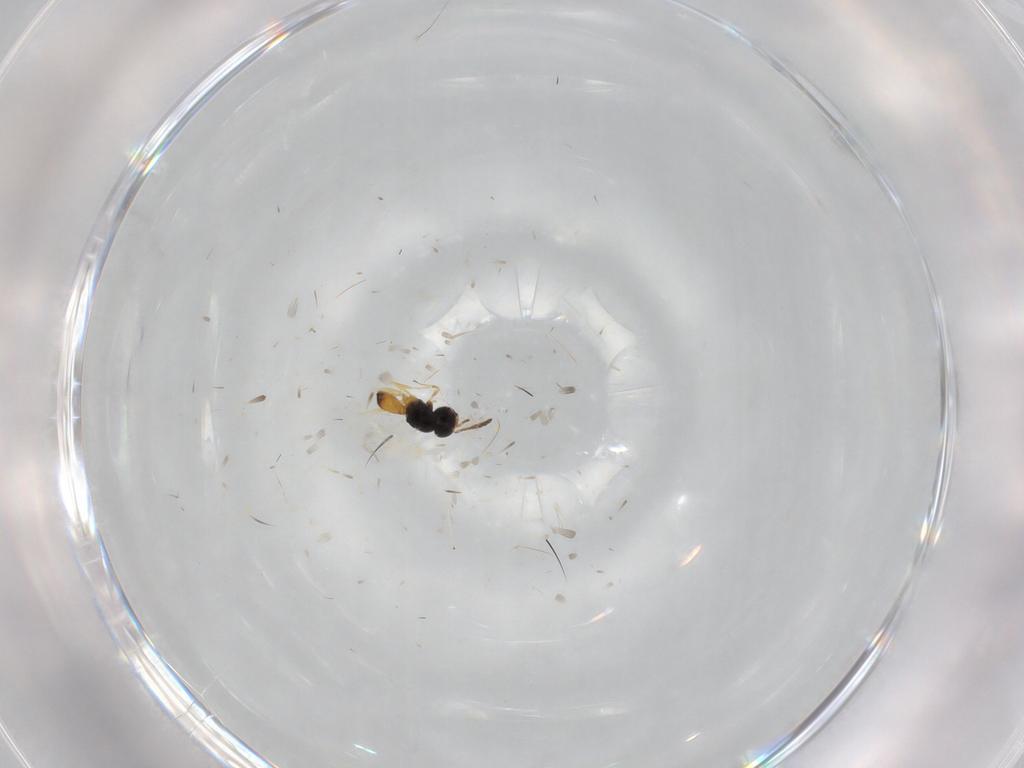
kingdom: Animalia
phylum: Arthropoda
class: Insecta
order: Hymenoptera
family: Scelionidae
